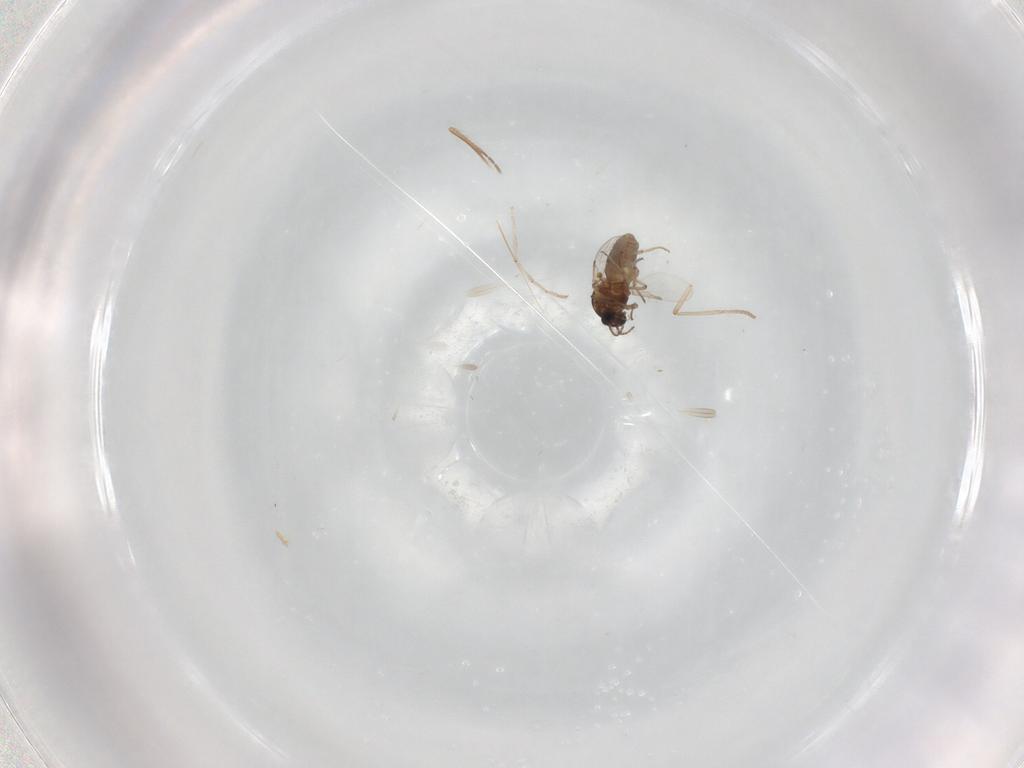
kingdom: Animalia
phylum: Arthropoda
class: Insecta
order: Diptera
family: Ceratopogonidae
